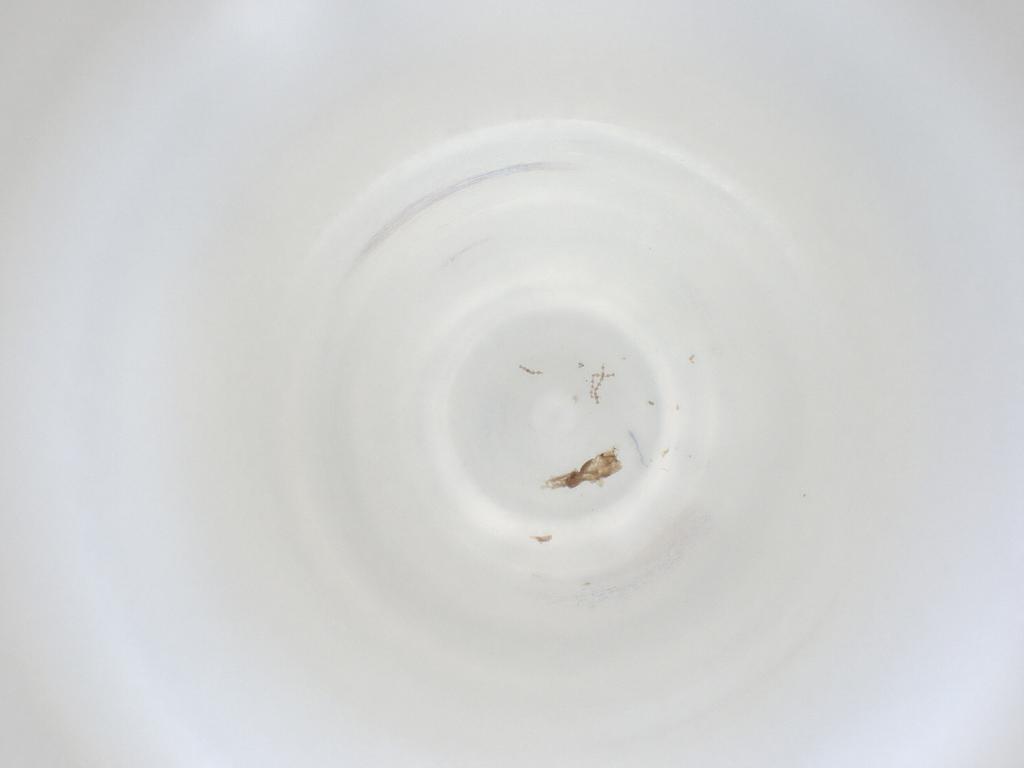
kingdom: Animalia
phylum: Arthropoda
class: Insecta
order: Diptera
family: Cecidomyiidae
